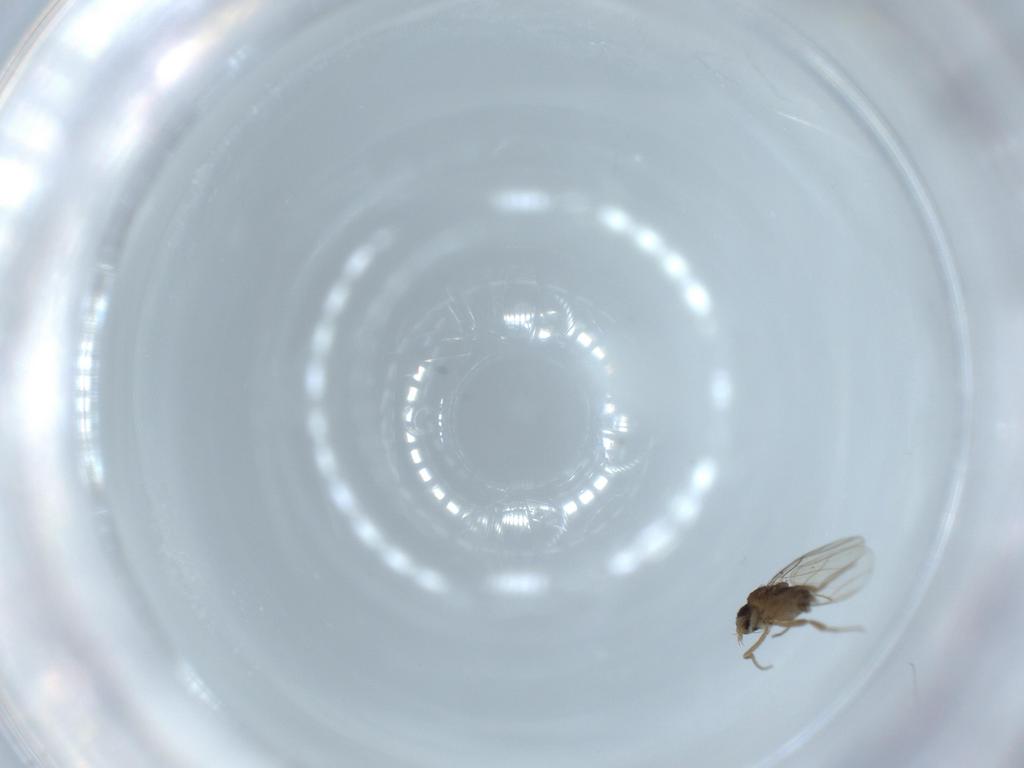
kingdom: Animalia
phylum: Arthropoda
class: Insecta
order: Diptera
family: Phoridae
